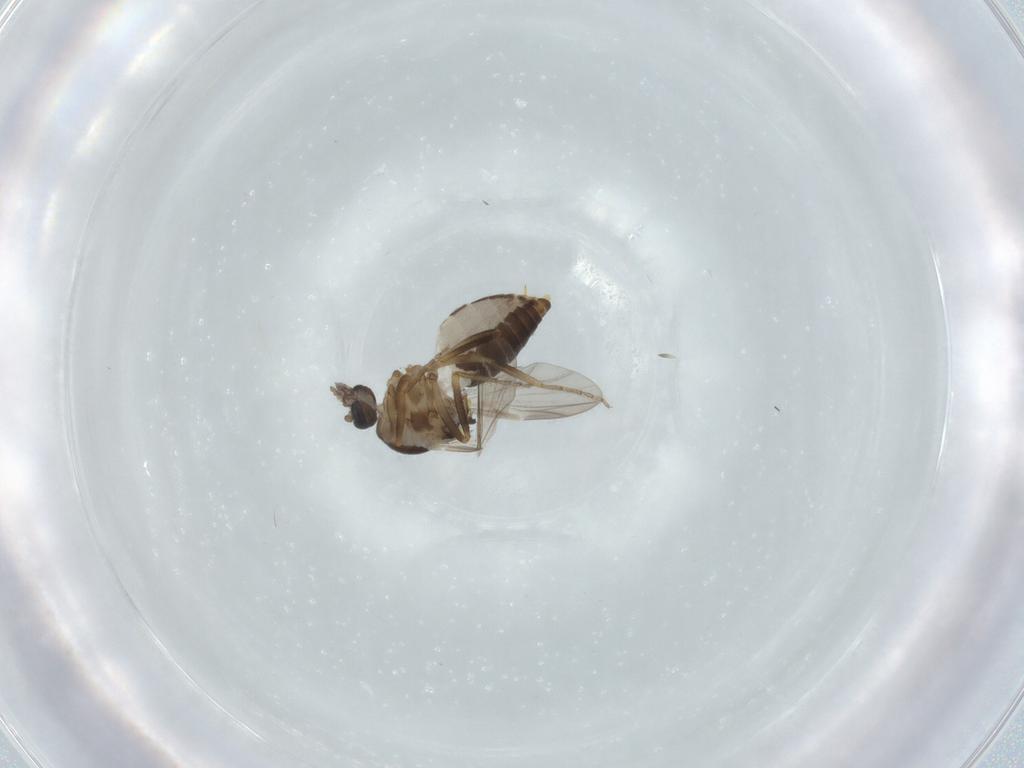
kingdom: Animalia
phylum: Arthropoda
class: Insecta
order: Diptera
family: Ceratopogonidae
